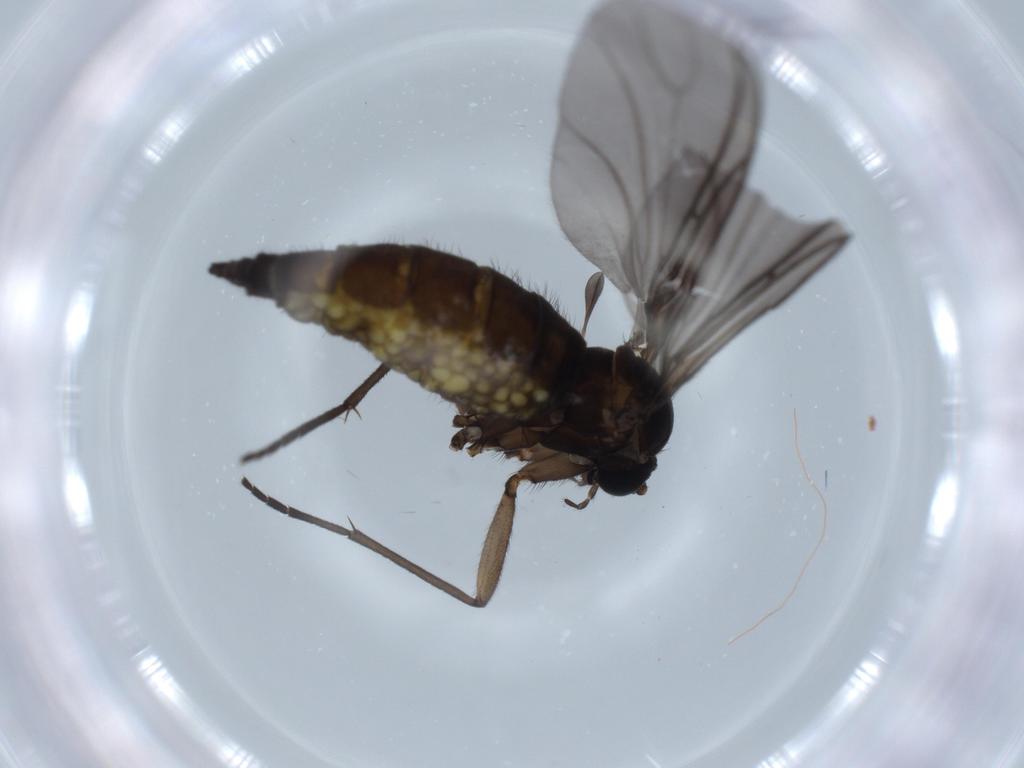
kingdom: Animalia
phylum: Arthropoda
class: Insecta
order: Diptera
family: Sciaridae
